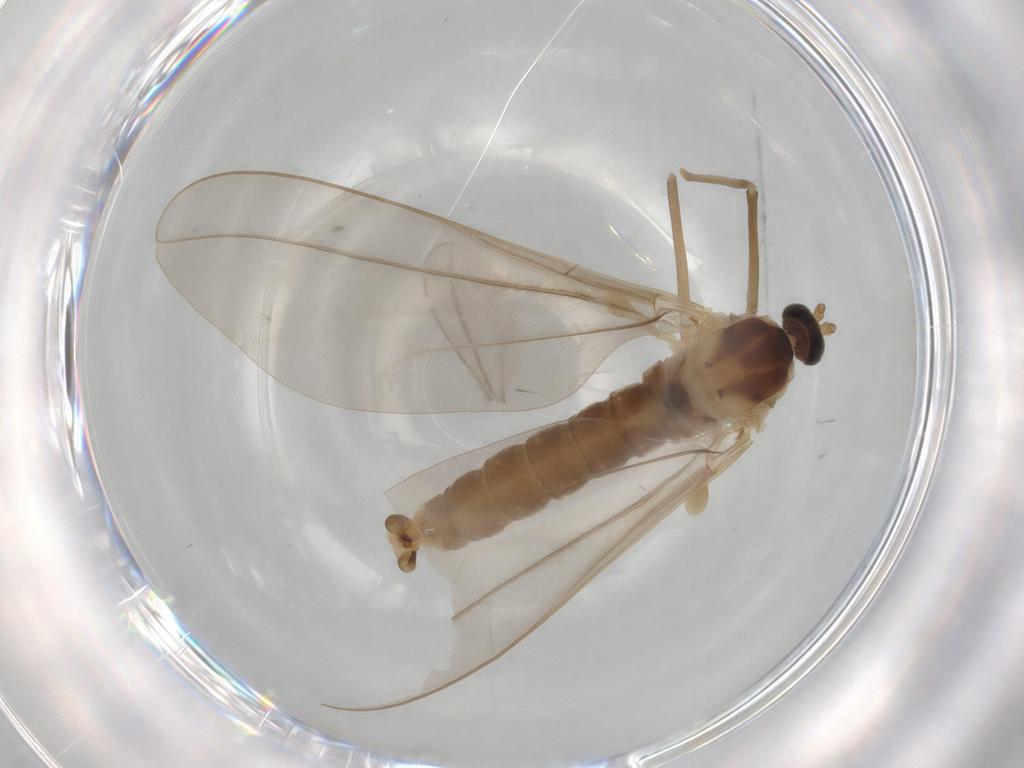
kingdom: Animalia
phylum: Arthropoda
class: Insecta
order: Diptera
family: Cecidomyiidae
